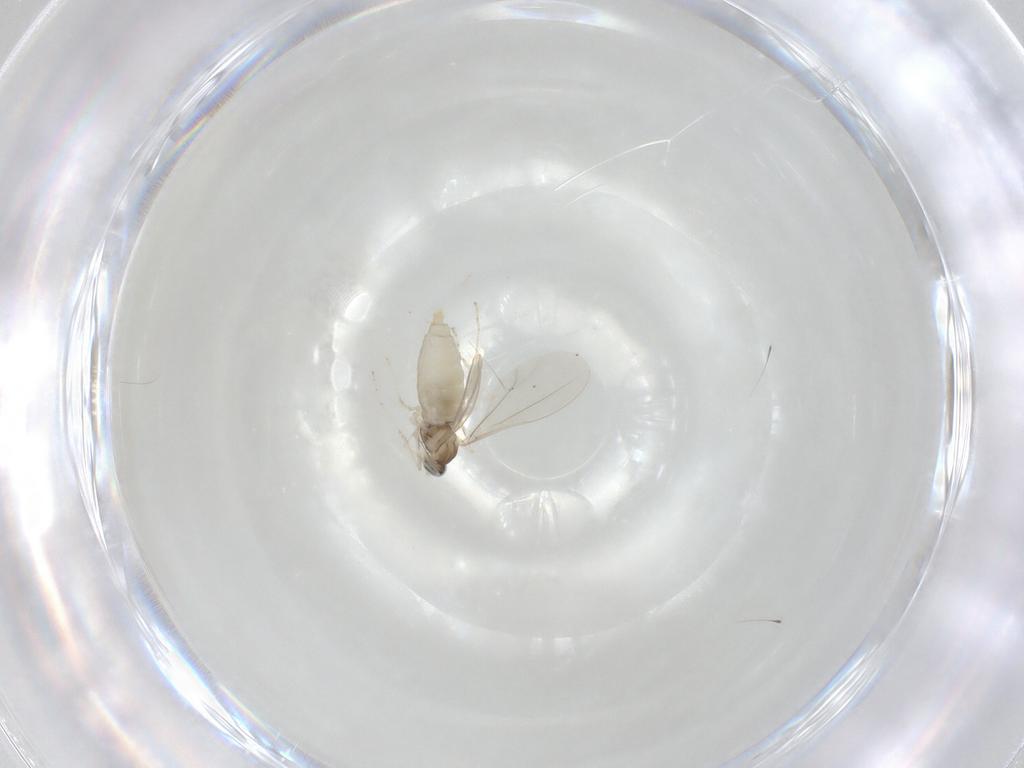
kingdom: Animalia
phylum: Arthropoda
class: Insecta
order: Diptera
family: Cecidomyiidae
